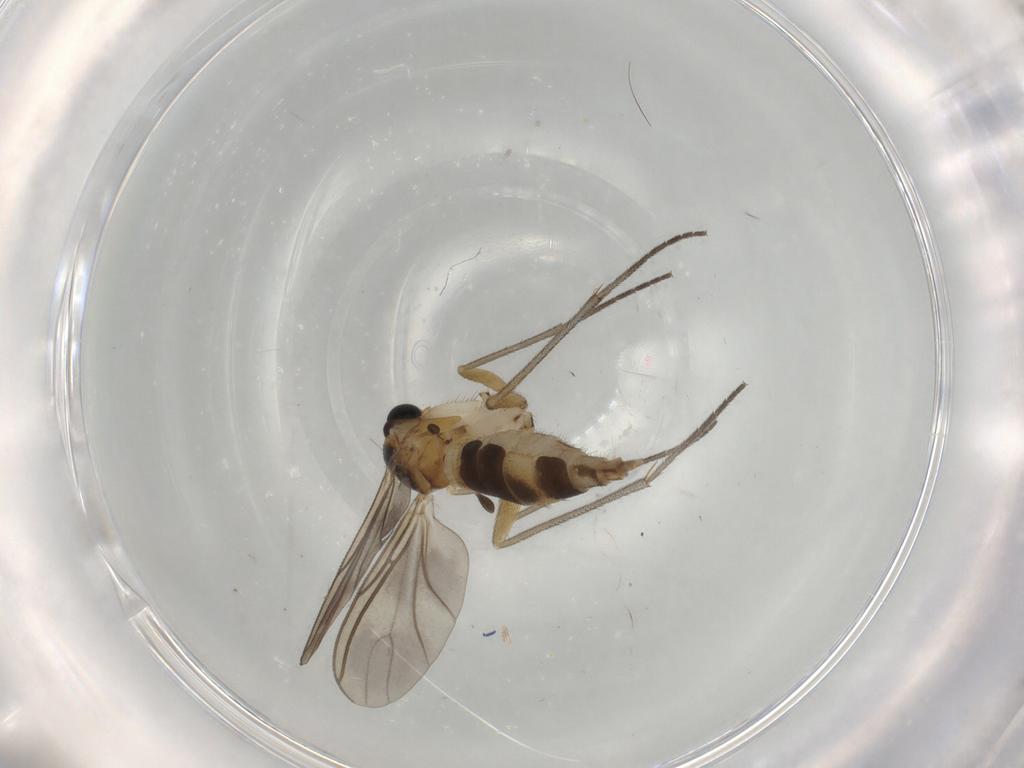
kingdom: Animalia
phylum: Arthropoda
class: Insecta
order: Diptera
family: Sciaridae
